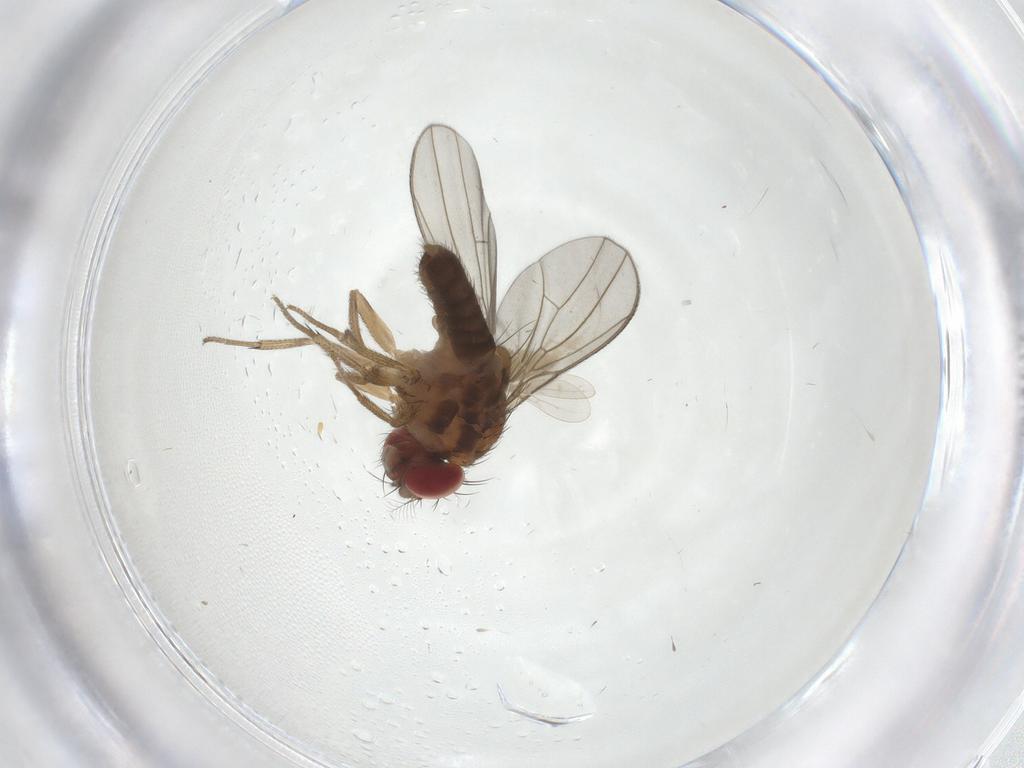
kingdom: Animalia
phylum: Arthropoda
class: Insecta
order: Diptera
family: Drosophilidae
